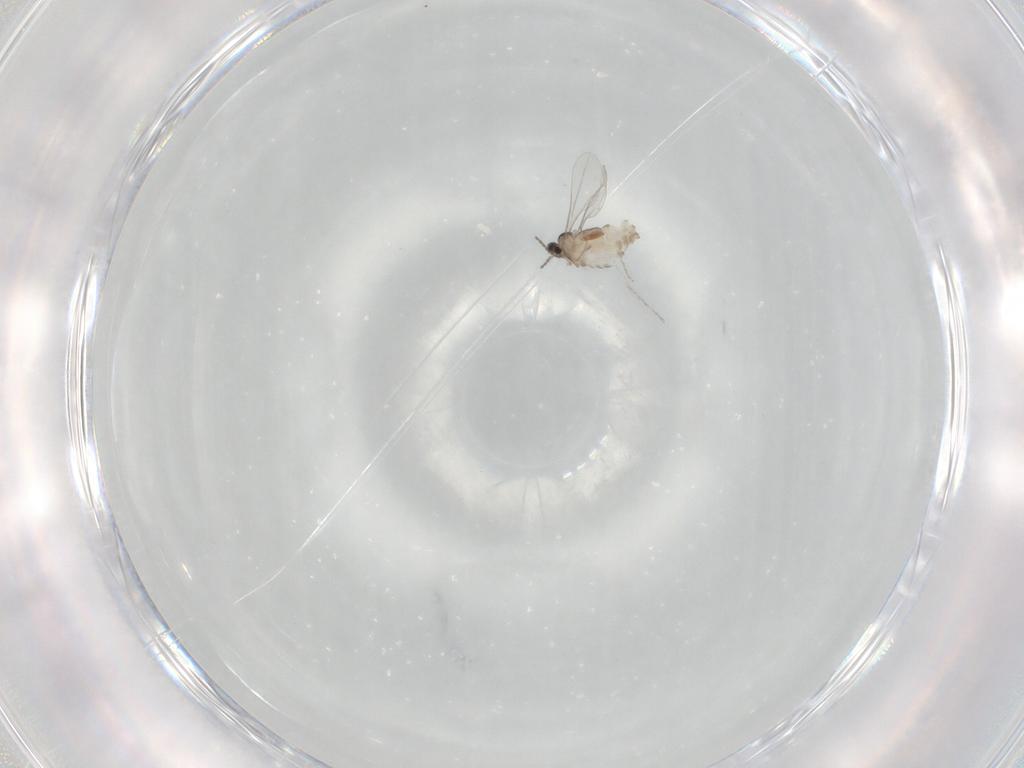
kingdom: Animalia
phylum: Arthropoda
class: Insecta
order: Diptera
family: Cecidomyiidae
